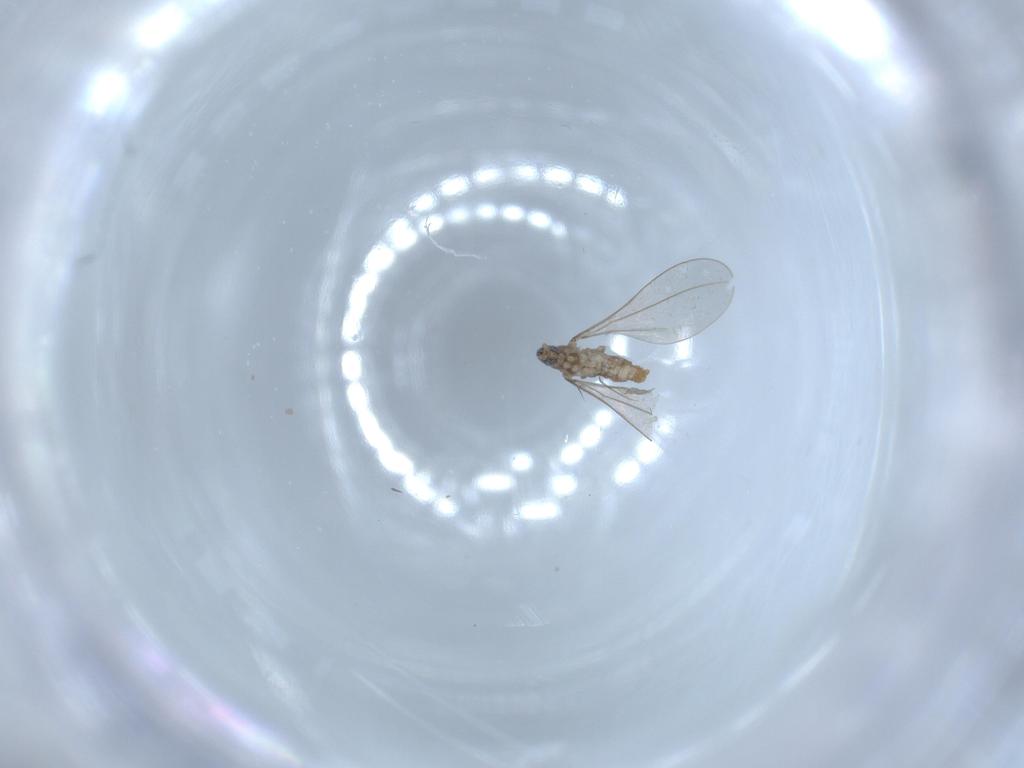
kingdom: Animalia
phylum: Arthropoda
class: Insecta
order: Diptera
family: Cecidomyiidae
